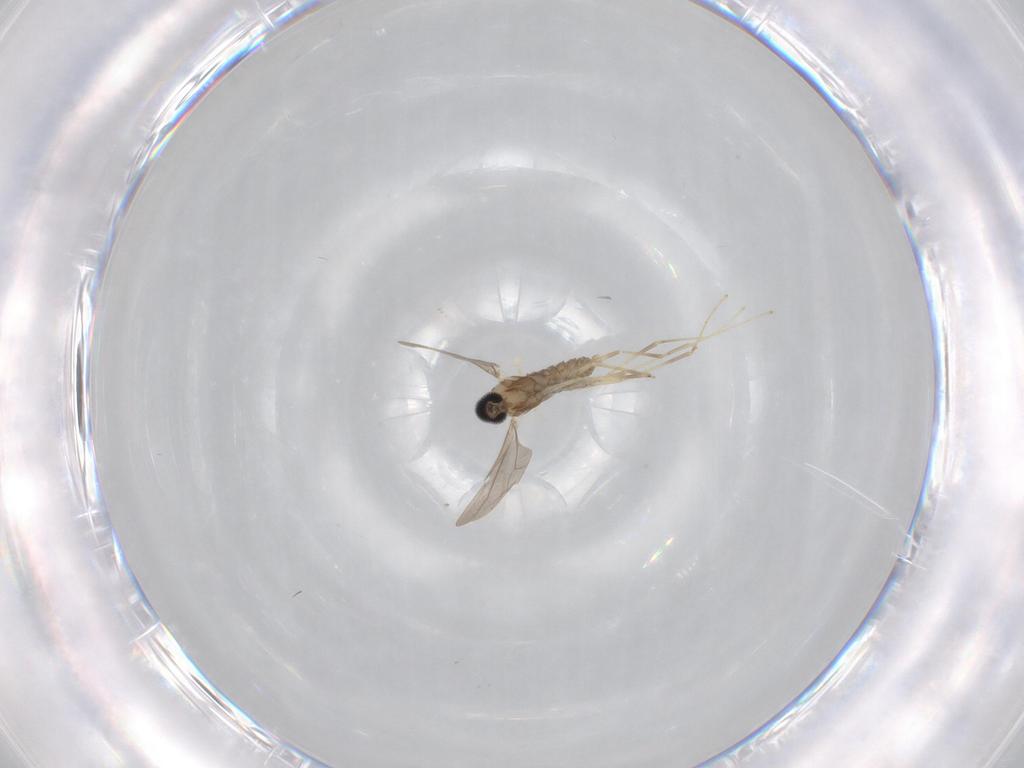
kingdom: Animalia
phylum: Arthropoda
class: Insecta
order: Diptera
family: Cecidomyiidae
